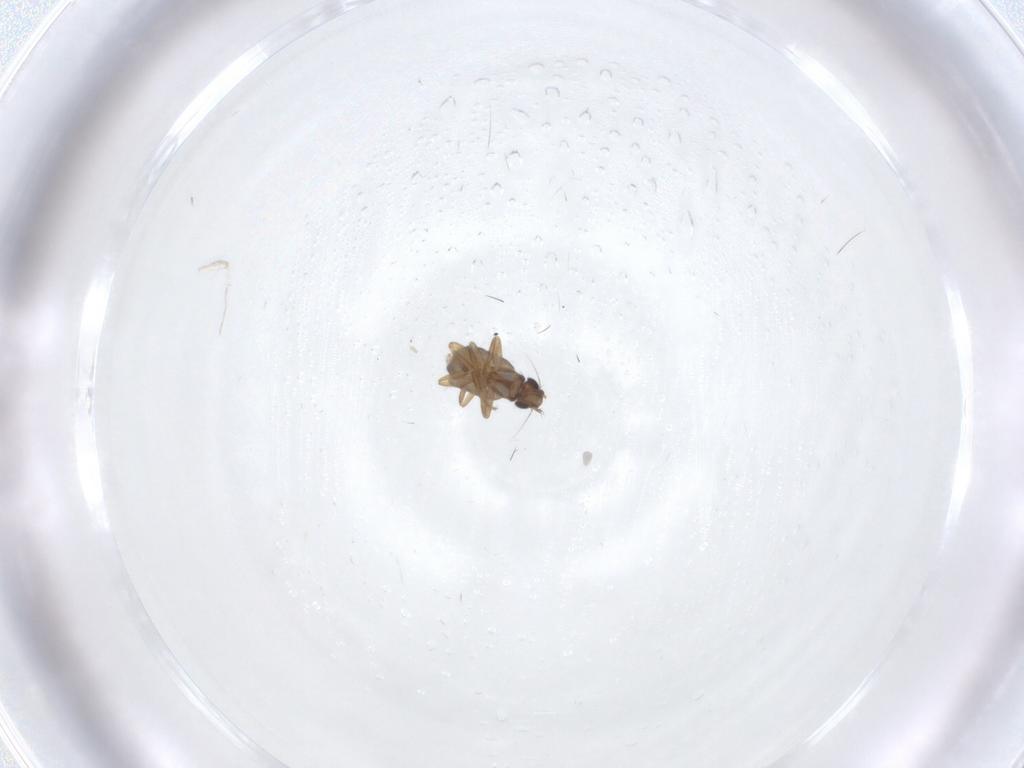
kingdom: Animalia
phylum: Arthropoda
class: Insecta
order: Diptera
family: Phoridae
